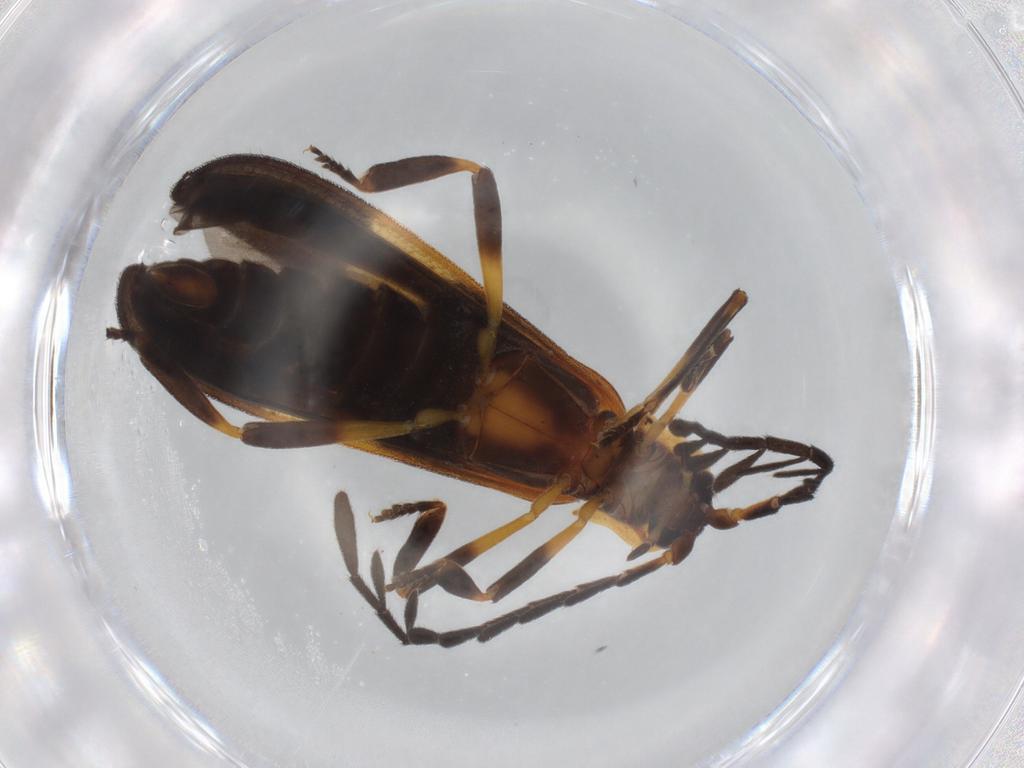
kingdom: Animalia
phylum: Arthropoda
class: Insecta
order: Coleoptera
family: Lycidae
